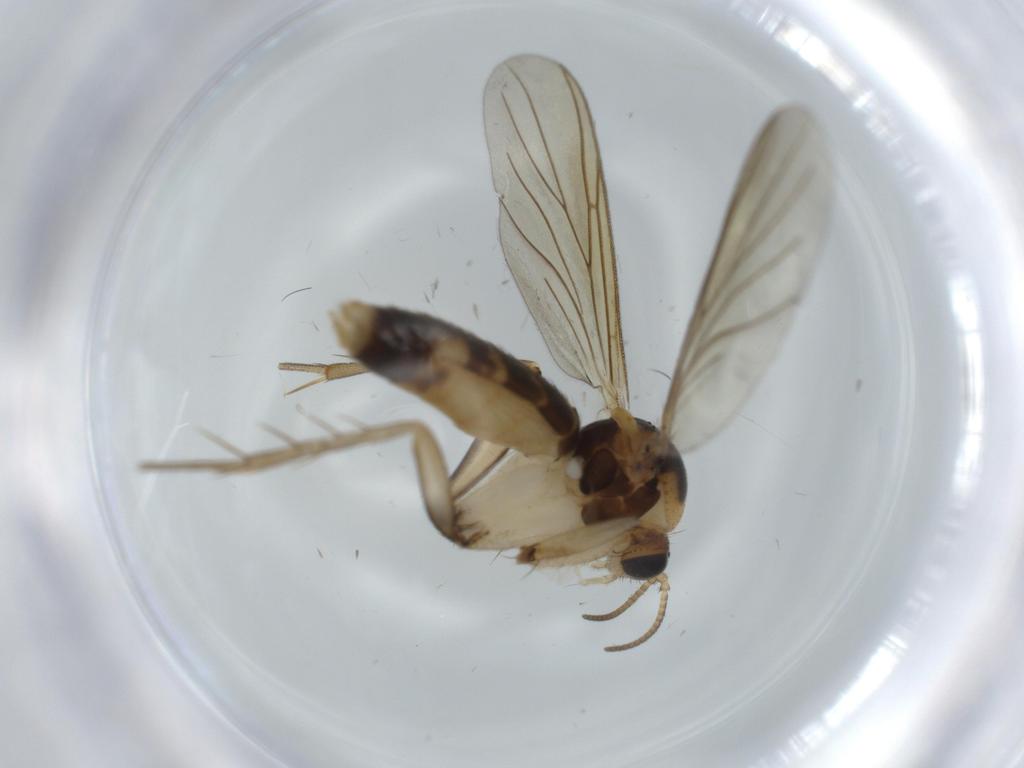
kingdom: Animalia
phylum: Arthropoda
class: Insecta
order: Diptera
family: Mycetophilidae
